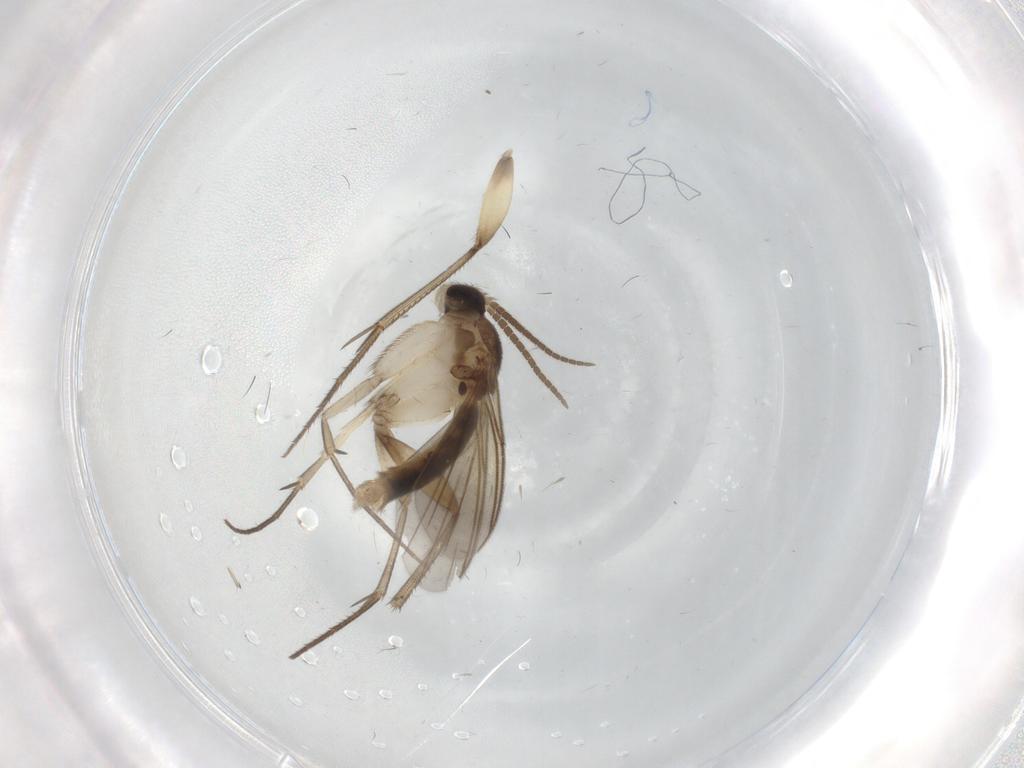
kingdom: Animalia
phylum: Arthropoda
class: Insecta
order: Diptera
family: Mycetophilidae
